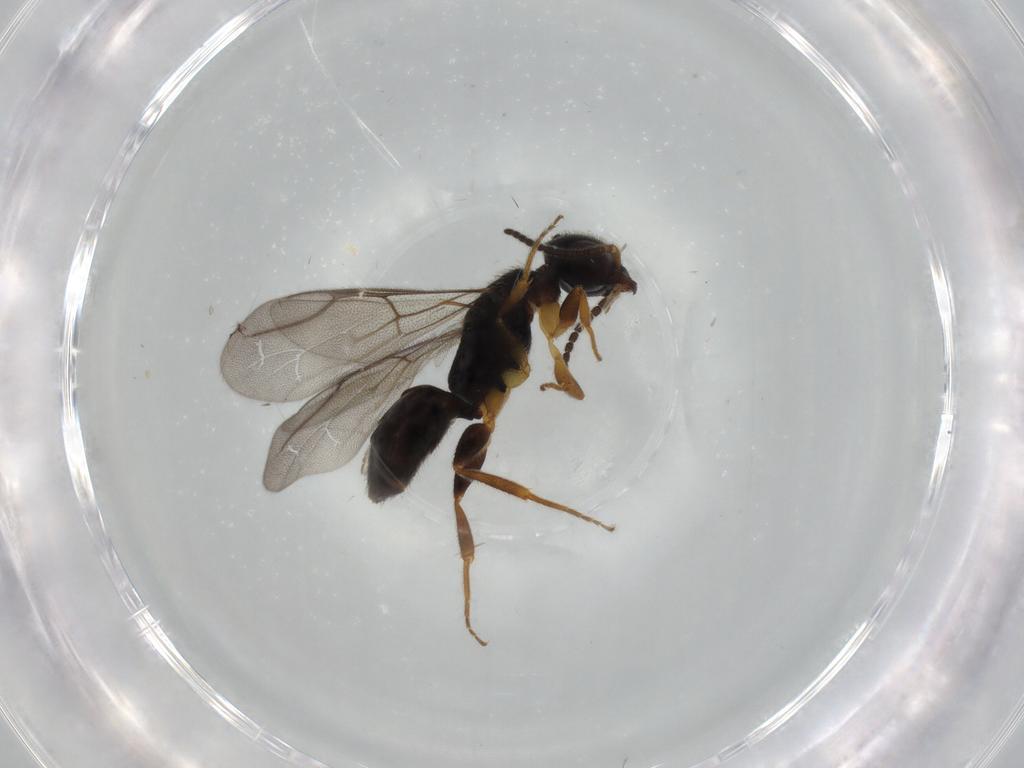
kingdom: Animalia
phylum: Arthropoda
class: Insecta
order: Hymenoptera
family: Bethylidae
